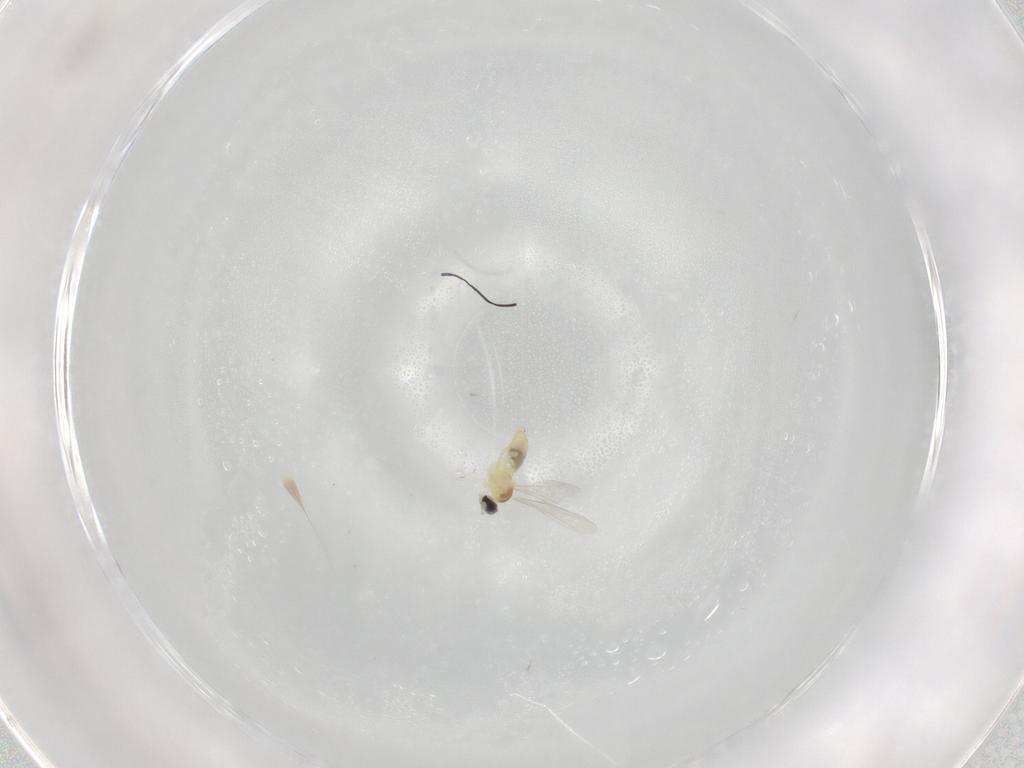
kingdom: Animalia
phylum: Arthropoda
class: Insecta
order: Diptera
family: Cecidomyiidae
